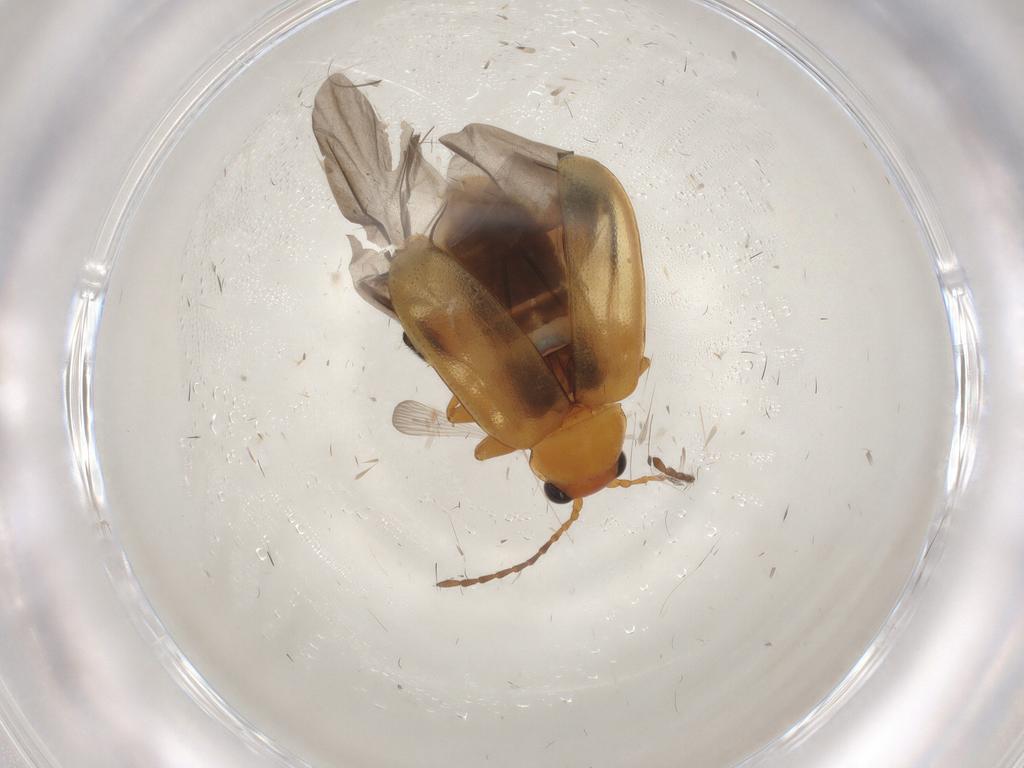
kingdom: Animalia
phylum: Arthropoda
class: Insecta
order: Coleoptera
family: Chrysomelidae
